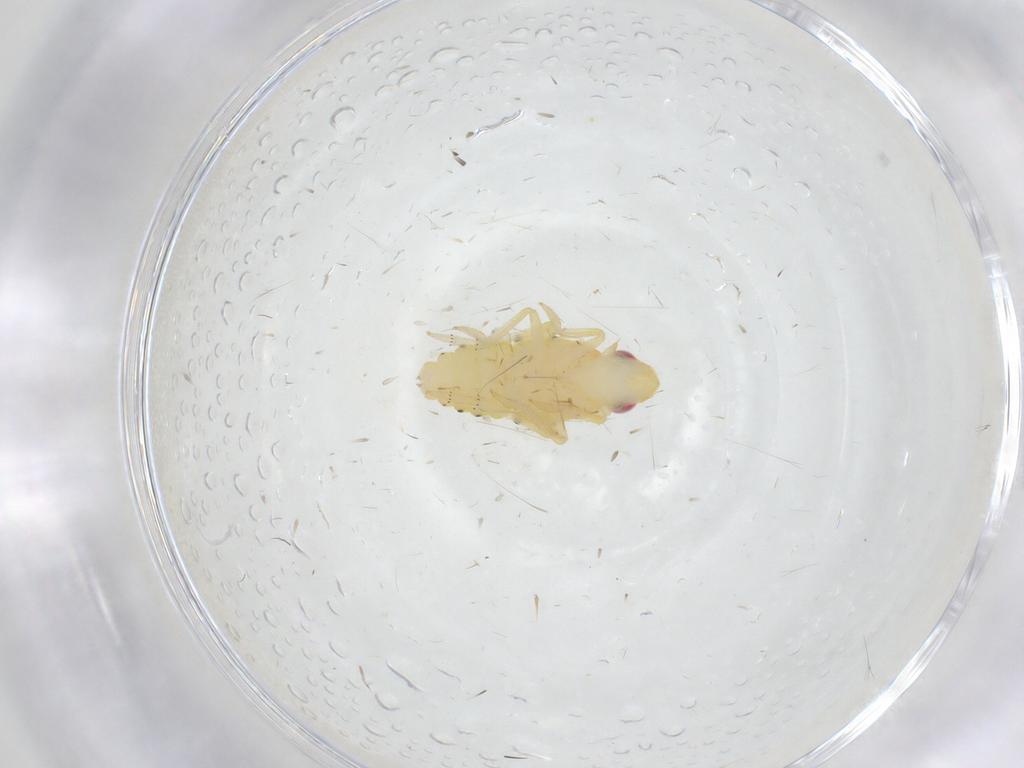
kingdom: Animalia
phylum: Arthropoda
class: Insecta
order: Hemiptera
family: Tropiduchidae
